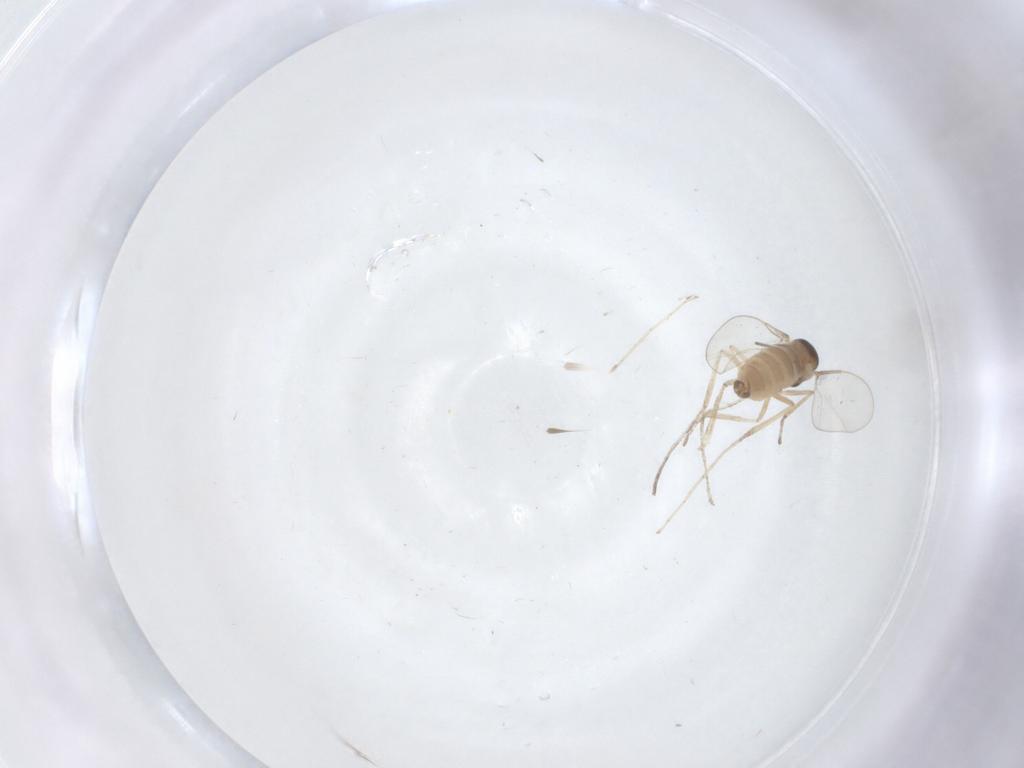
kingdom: Animalia
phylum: Arthropoda
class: Insecta
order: Diptera
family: Cecidomyiidae
